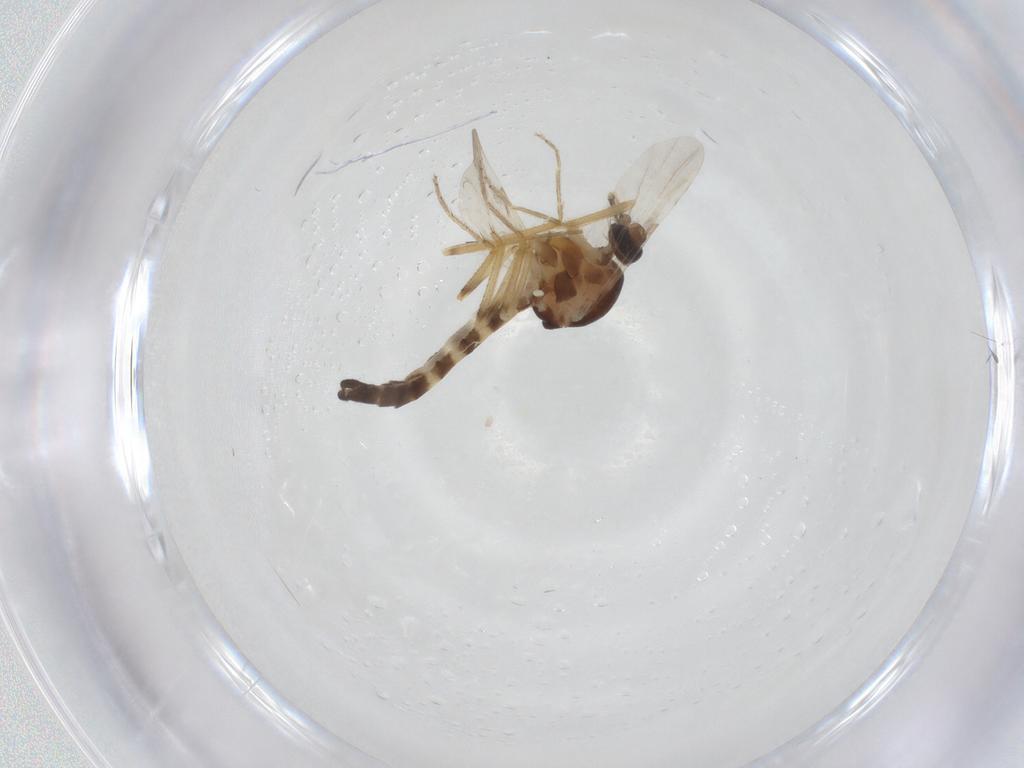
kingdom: Animalia
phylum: Arthropoda
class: Insecta
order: Diptera
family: Ceratopogonidae
